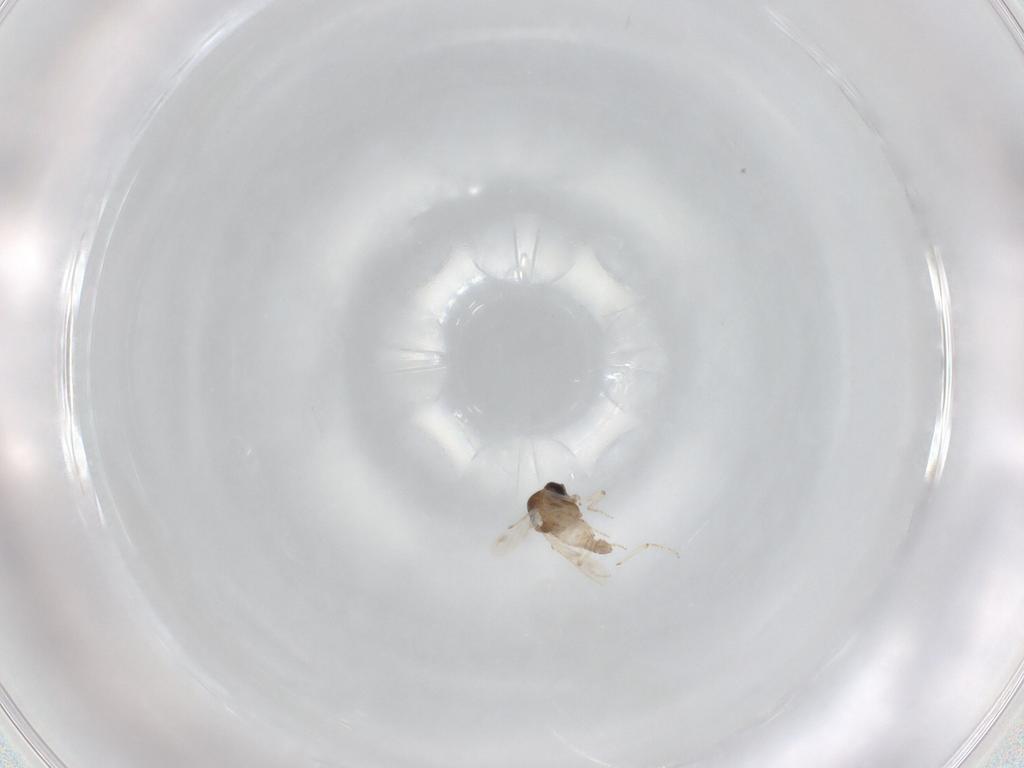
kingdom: Animalia
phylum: Arthropoda
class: Insecta
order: Diptera
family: Ceratopogonidae
